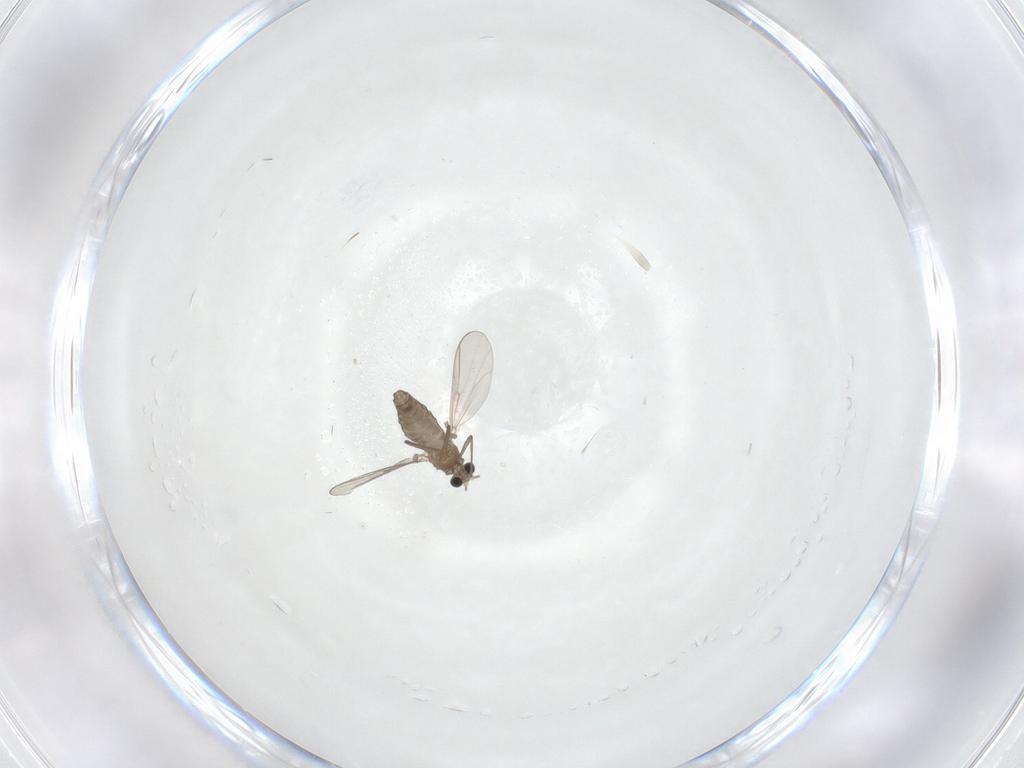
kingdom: Animalia
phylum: Arthropoda
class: Insecta
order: Diptera
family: Chironomidae
